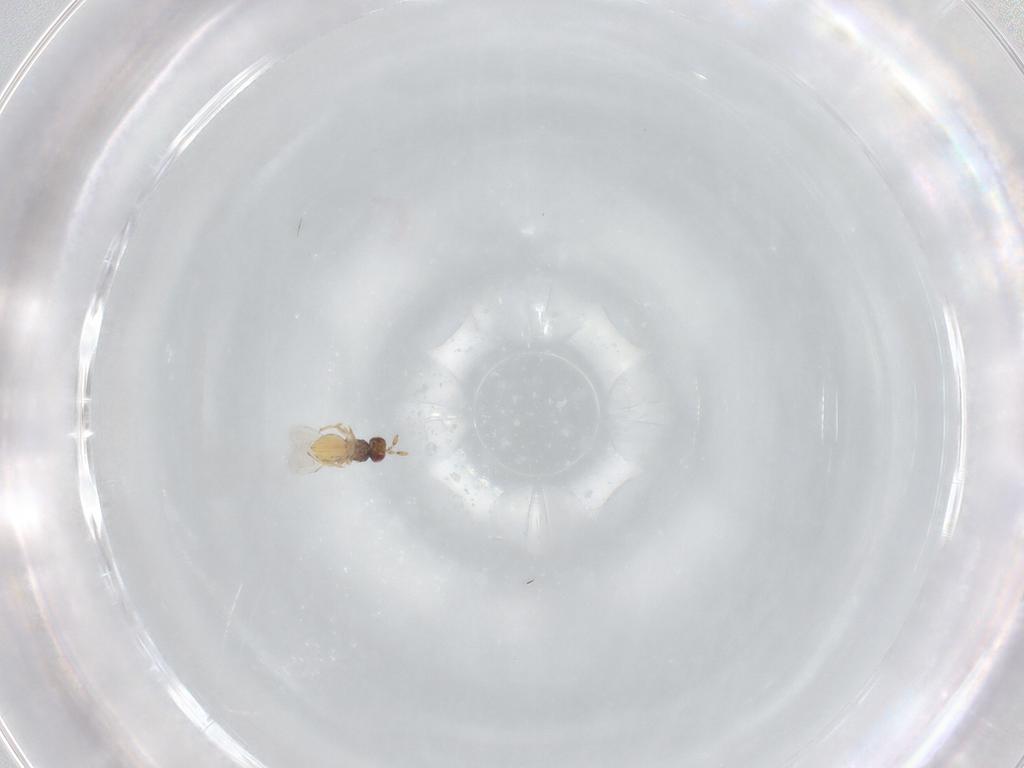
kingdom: Animalia
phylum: Arthropoda
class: Insecta
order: Hymenoptera
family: Trichogrammatidae
